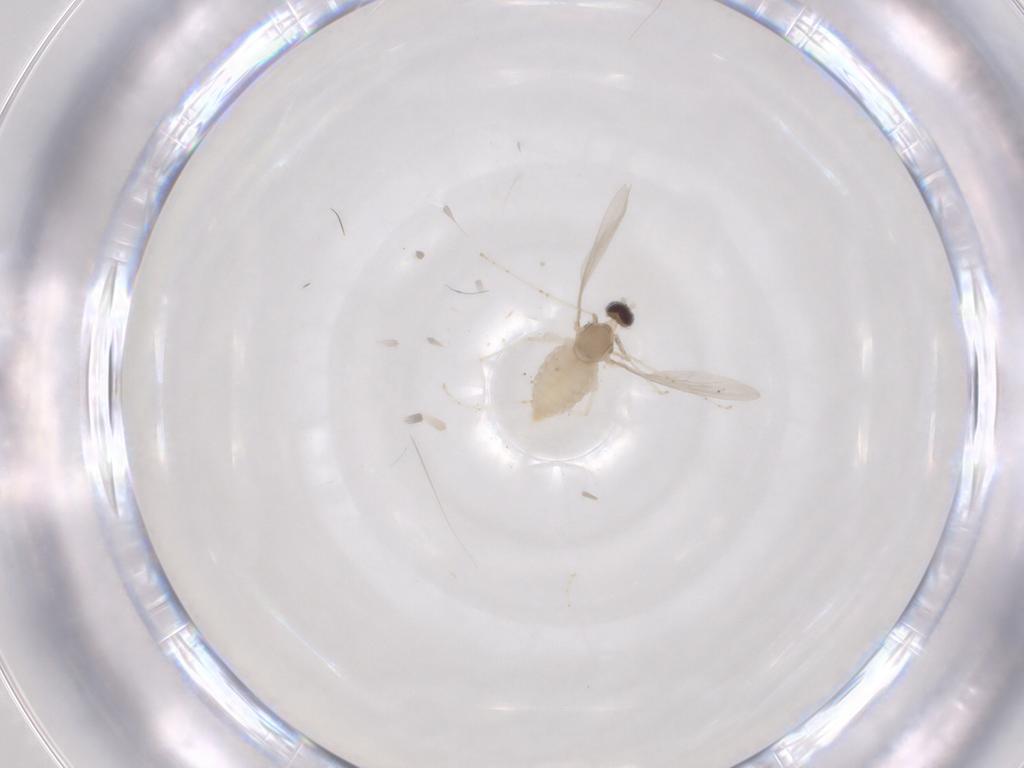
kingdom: Animalia
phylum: Arthropoda
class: Insecta
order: Diptera
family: Cecidomyiidae
